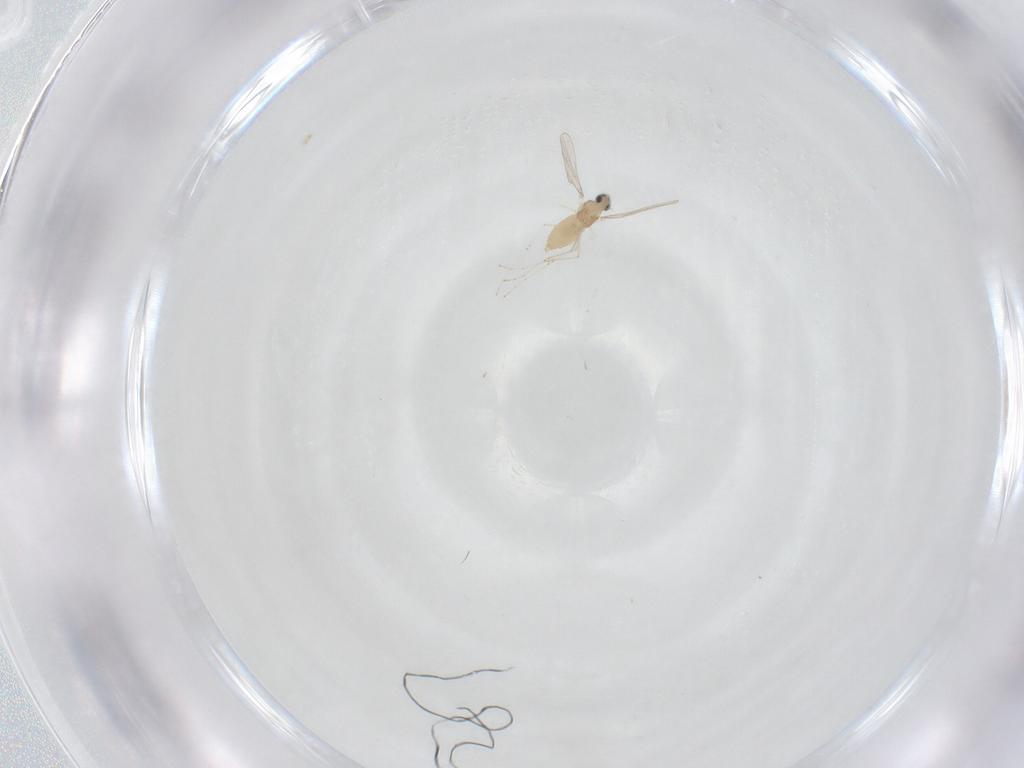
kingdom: Animalia
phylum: Arthropoda
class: Insecta
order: Diptera
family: Cecidomyiidae
